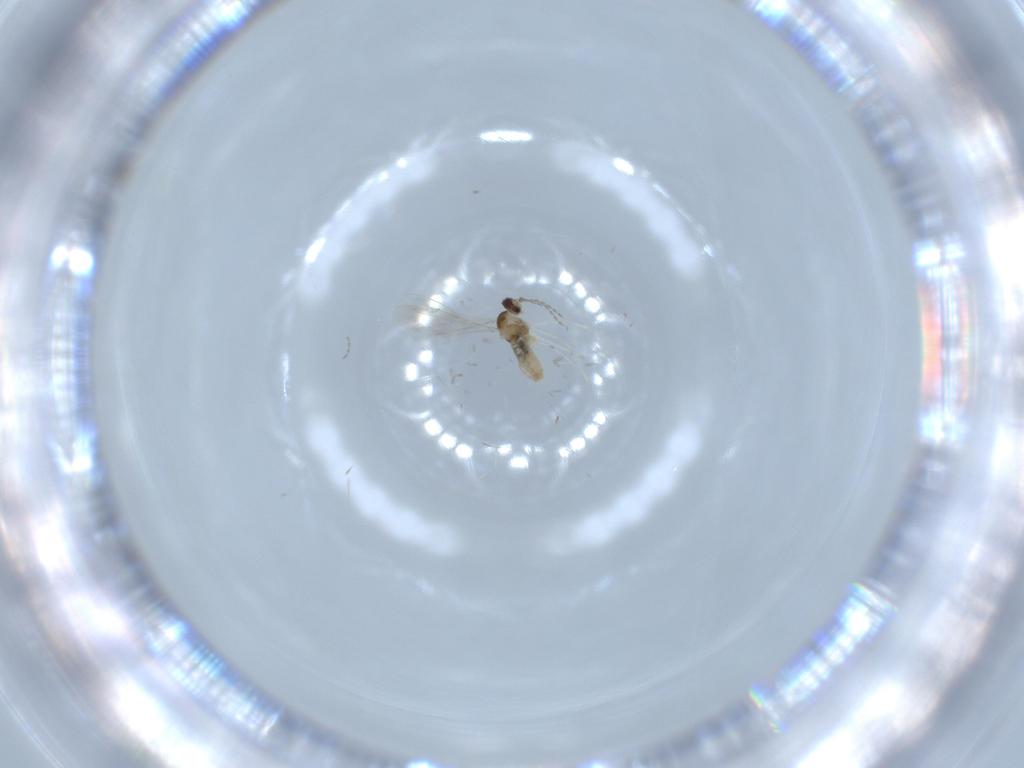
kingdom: Animalia
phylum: Arthropoda
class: Insecta
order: Diptera
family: Cecidomyiidae
